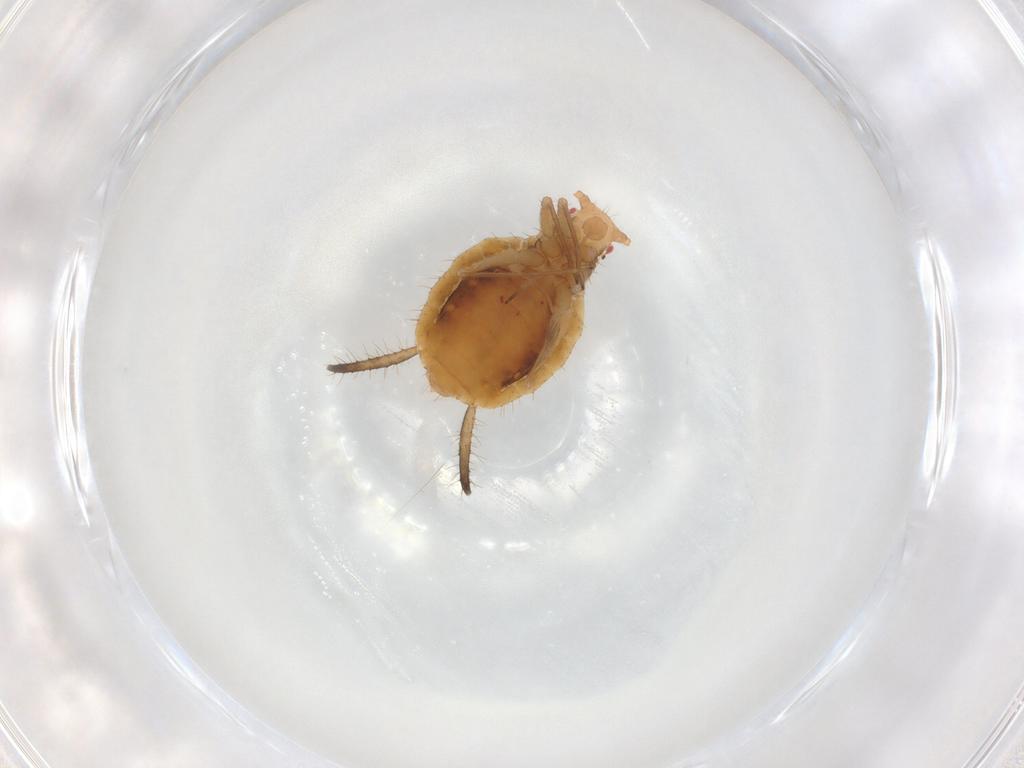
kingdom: Animalia
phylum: Arthropoda
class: Insecta
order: Hemiptera
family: Aphididae
